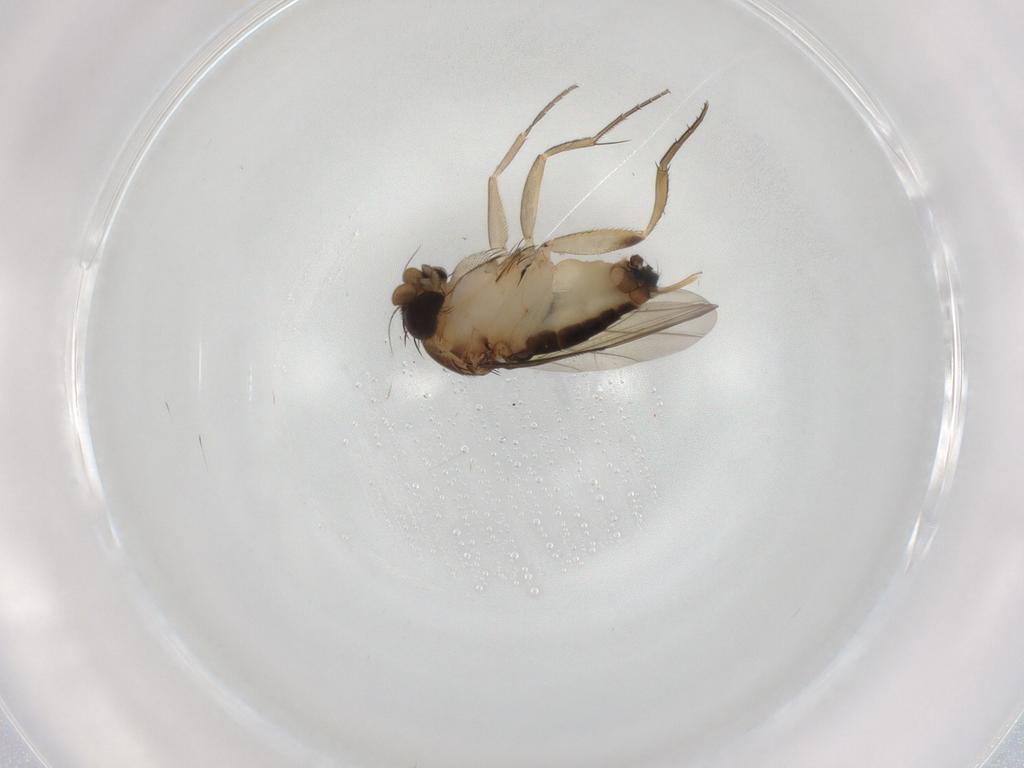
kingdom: Animalia
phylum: Arthropoda
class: Insecta
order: Diptera
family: Phoridae
